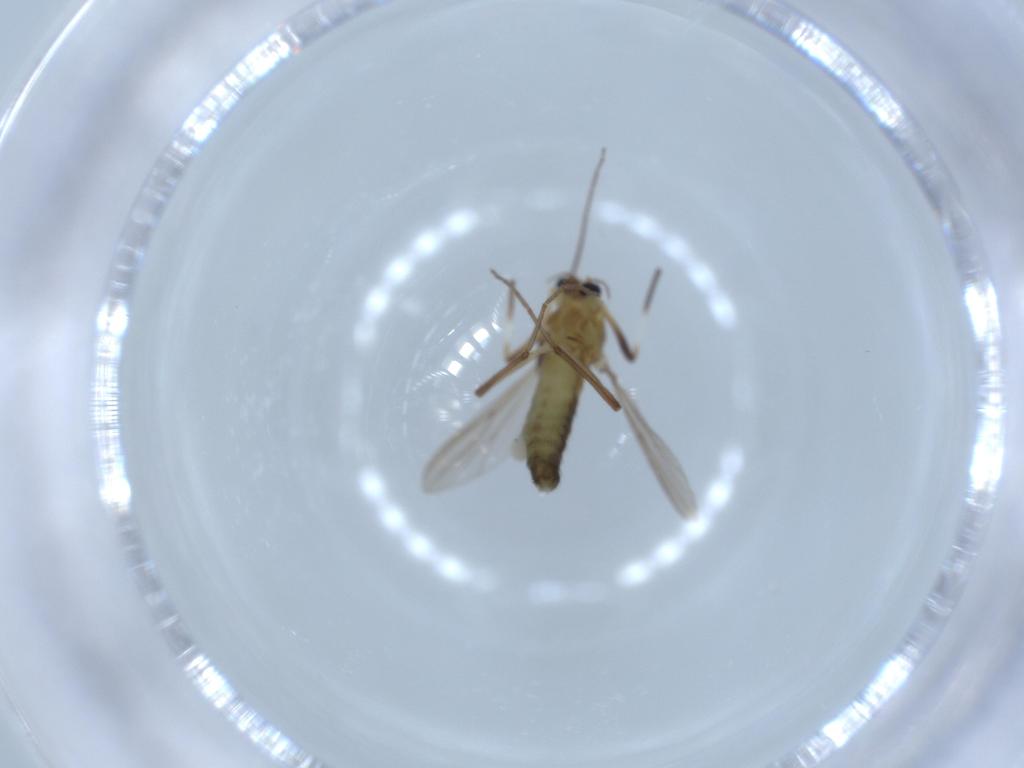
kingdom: Animalia
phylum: Arthropoda
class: Insecta
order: Diptera
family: Chironomidae
